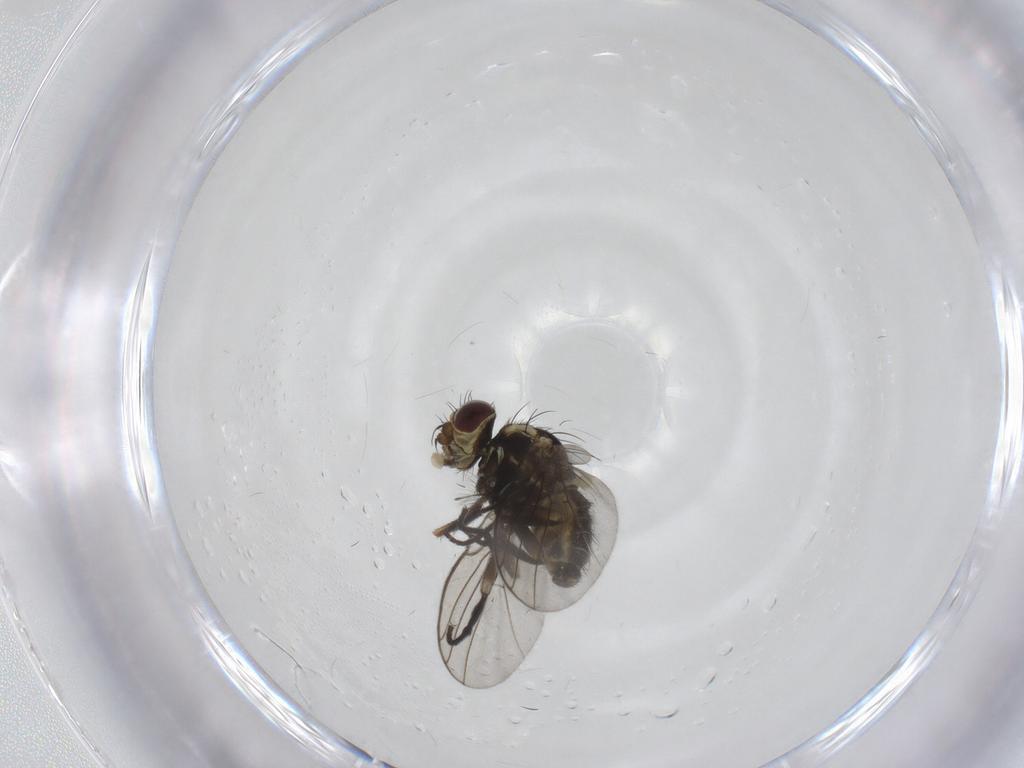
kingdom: Animalia
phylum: Arthropoda
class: Insecta
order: Diptera
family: Agromyzidae
